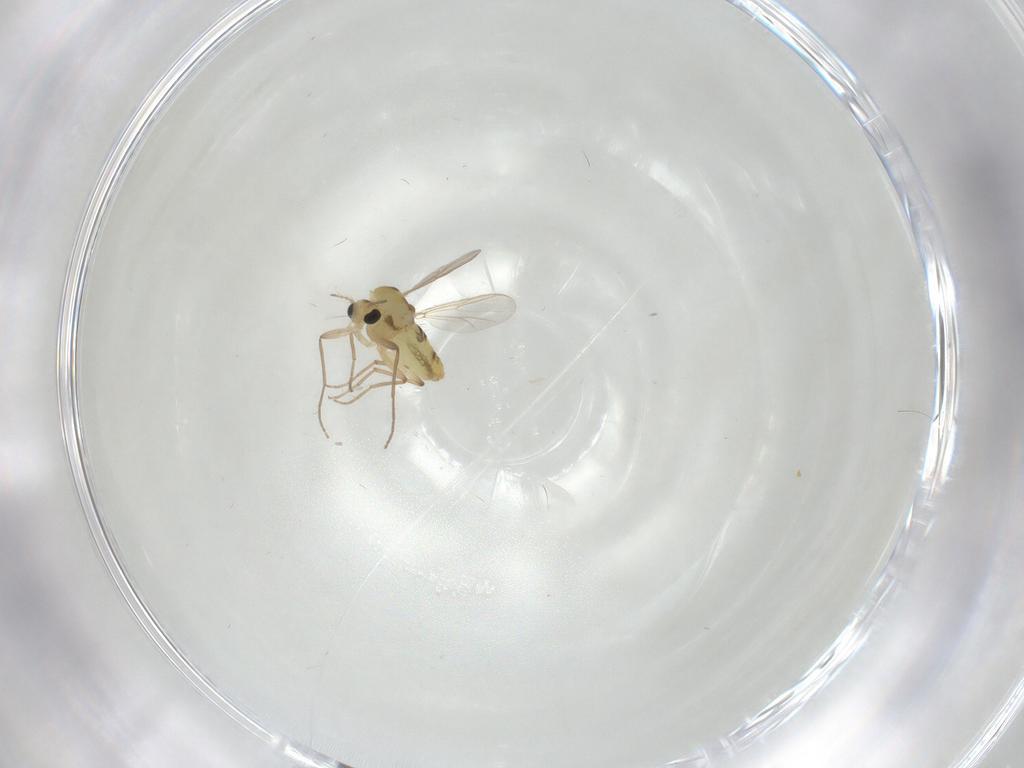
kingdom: Animalia
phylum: Arthropoda
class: Insecta
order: Diptera
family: Chironomidae
